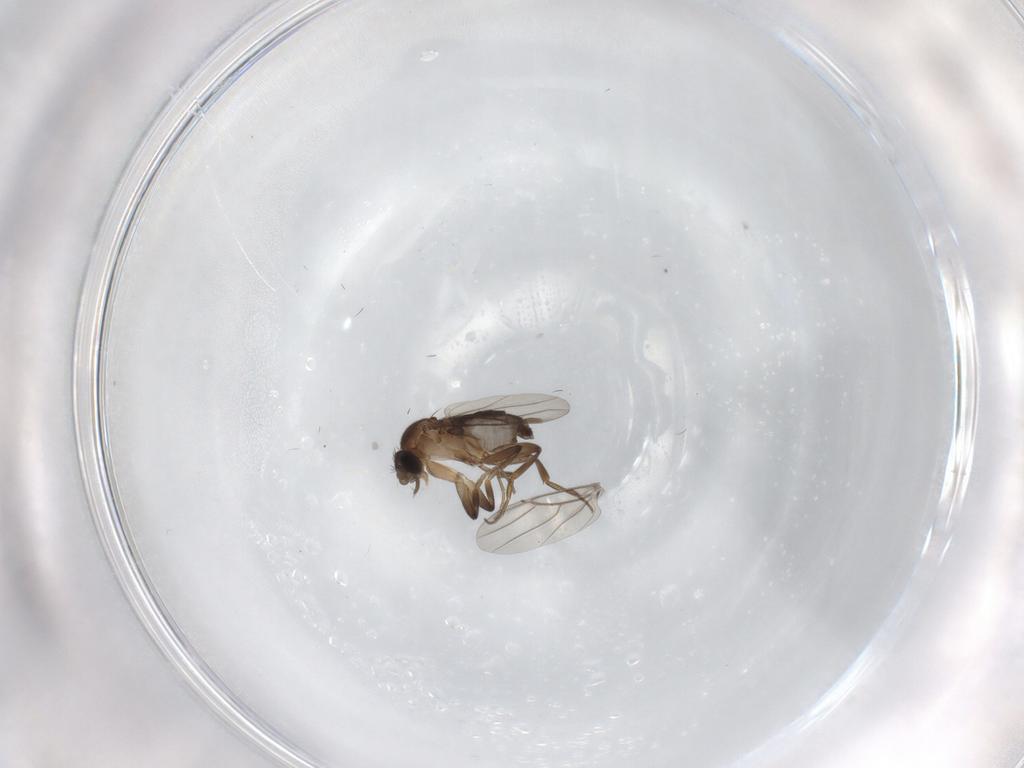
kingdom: Animalia
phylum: Arthropoda
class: Insecta
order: Diptera
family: Phoridae
